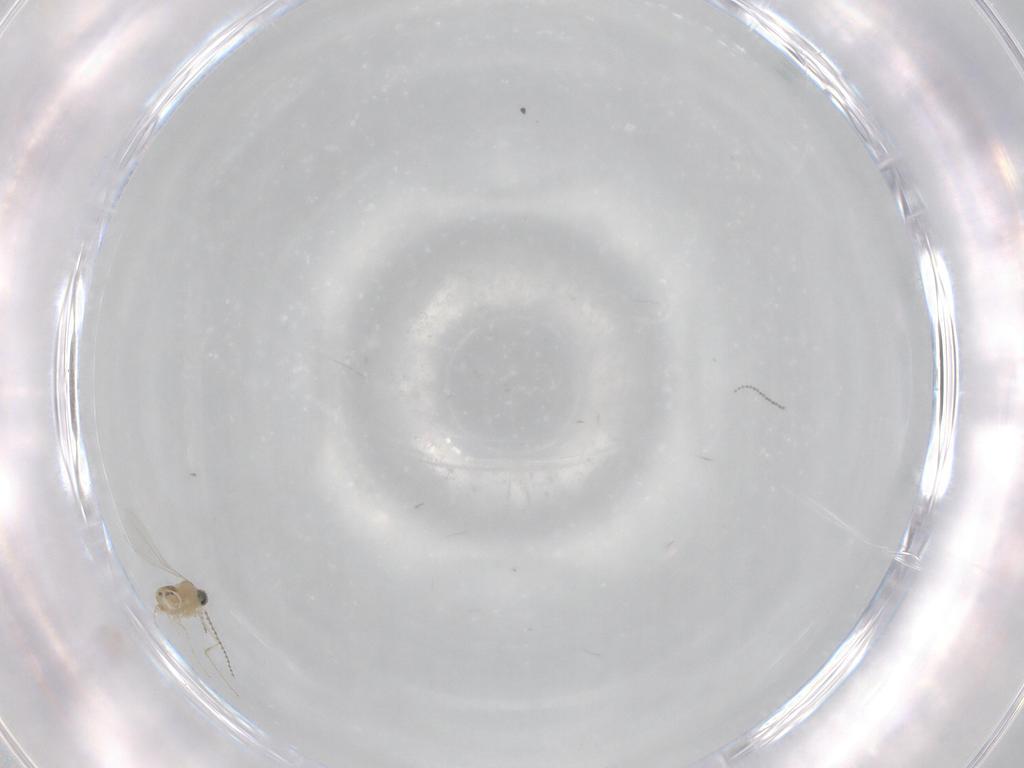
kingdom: Animalia
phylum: Arthropoda
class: Insecta
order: Diptera
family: Cecidomyiidae
